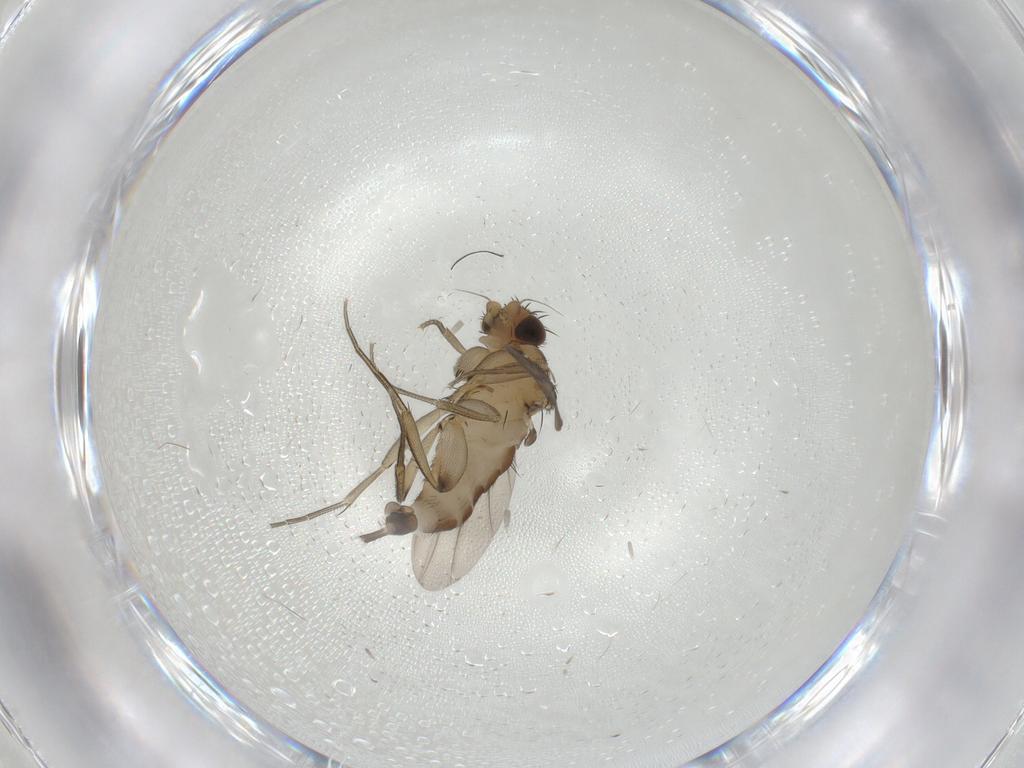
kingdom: Animalia
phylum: Arthropoda
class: Insecta
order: Diptera
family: Phoridae
